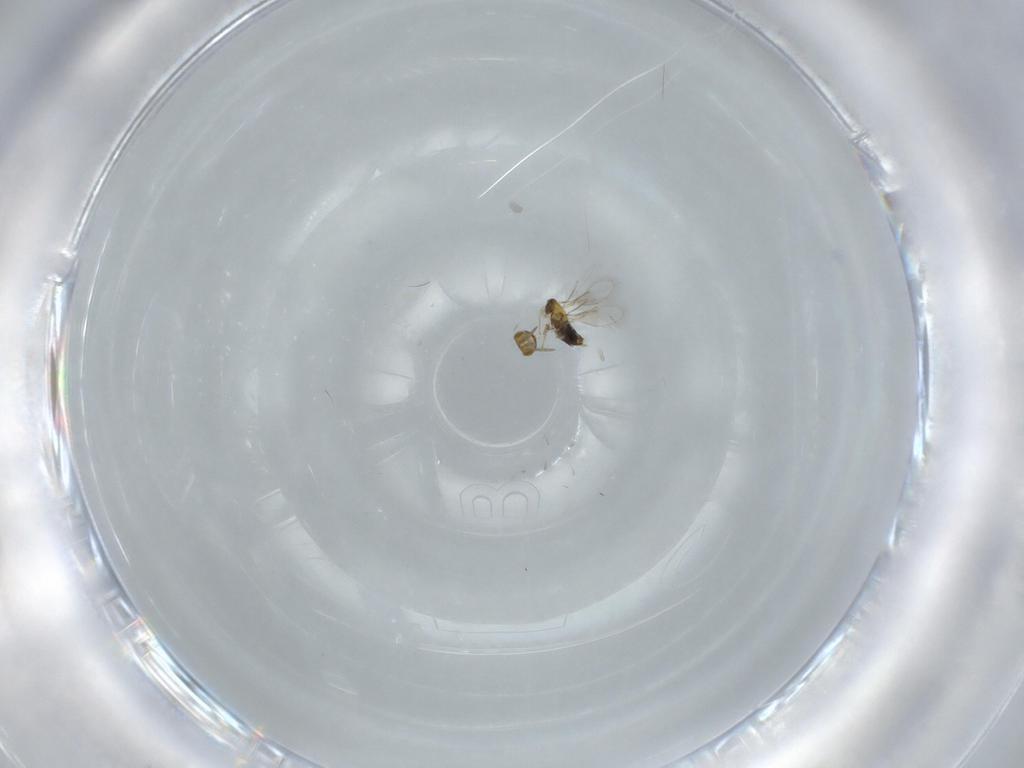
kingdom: Animalia
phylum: Arthropoda
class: Insecta
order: Hymenoptera
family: Aphelinidae
